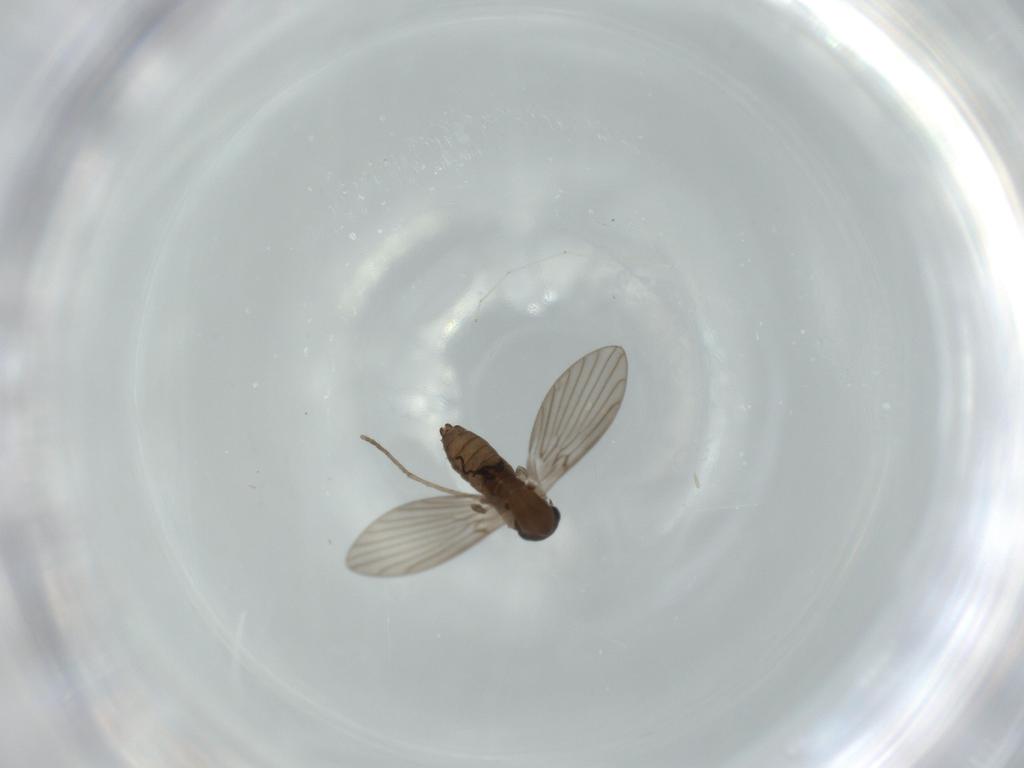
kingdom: Animalia
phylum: Arthropoda
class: Insecta
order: Diptera
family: Psychodidae
